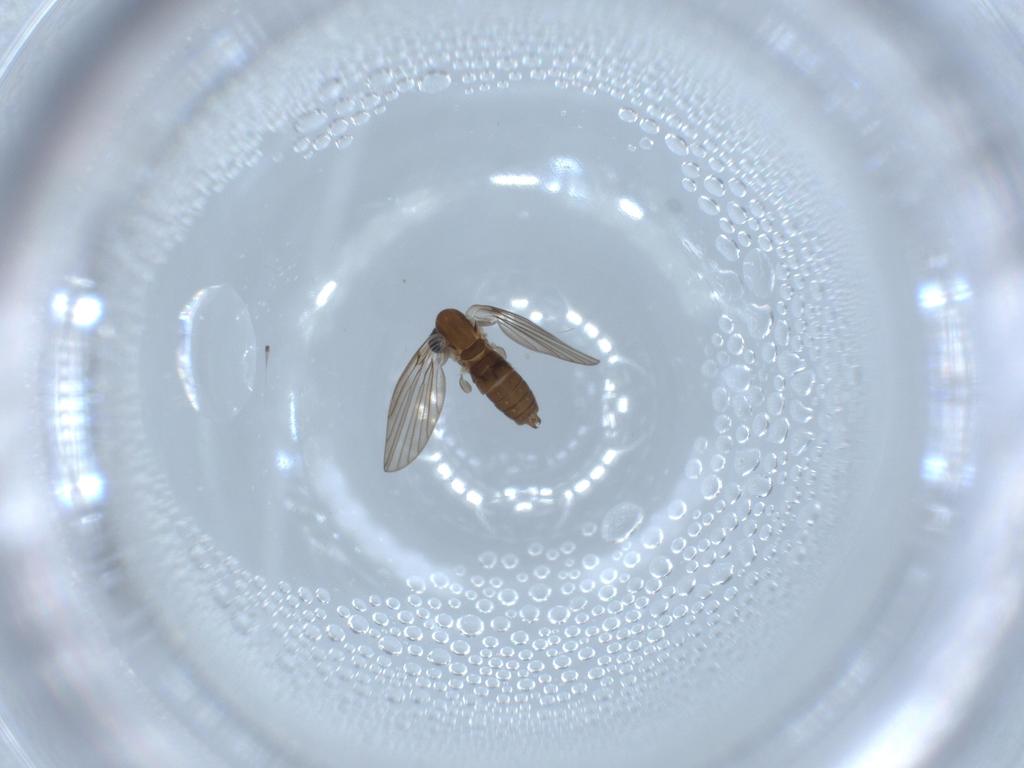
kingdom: Animalia
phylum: Arthropoda
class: Insecta
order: Diptera
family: Psychodidae
